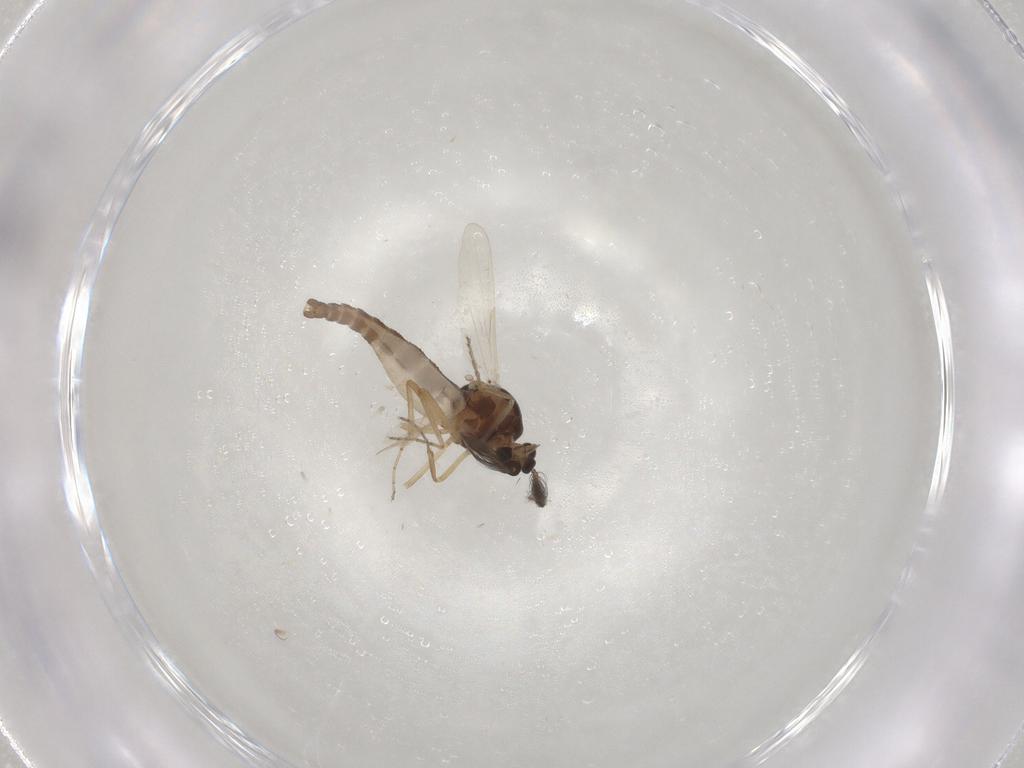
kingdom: Animalia
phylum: Arthropoda
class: Insecta
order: Diptera
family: Ceratopogonidae
